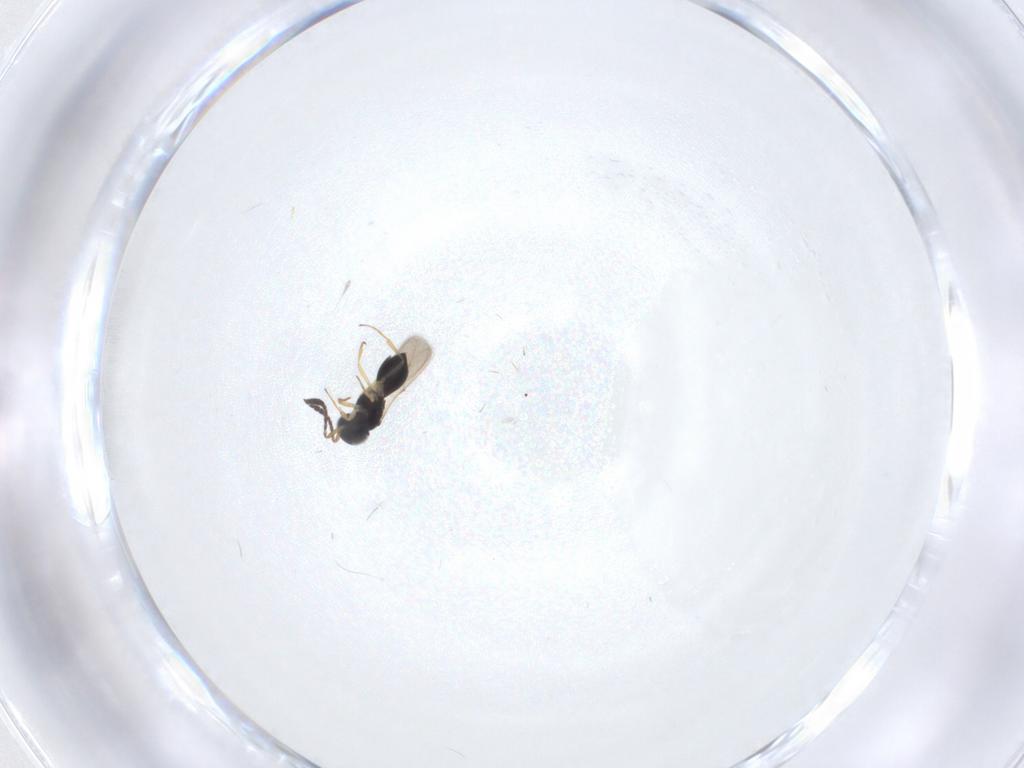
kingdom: Animalia
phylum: Arthropoda
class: Insecta
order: Hymenoptera
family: Scelionidae
